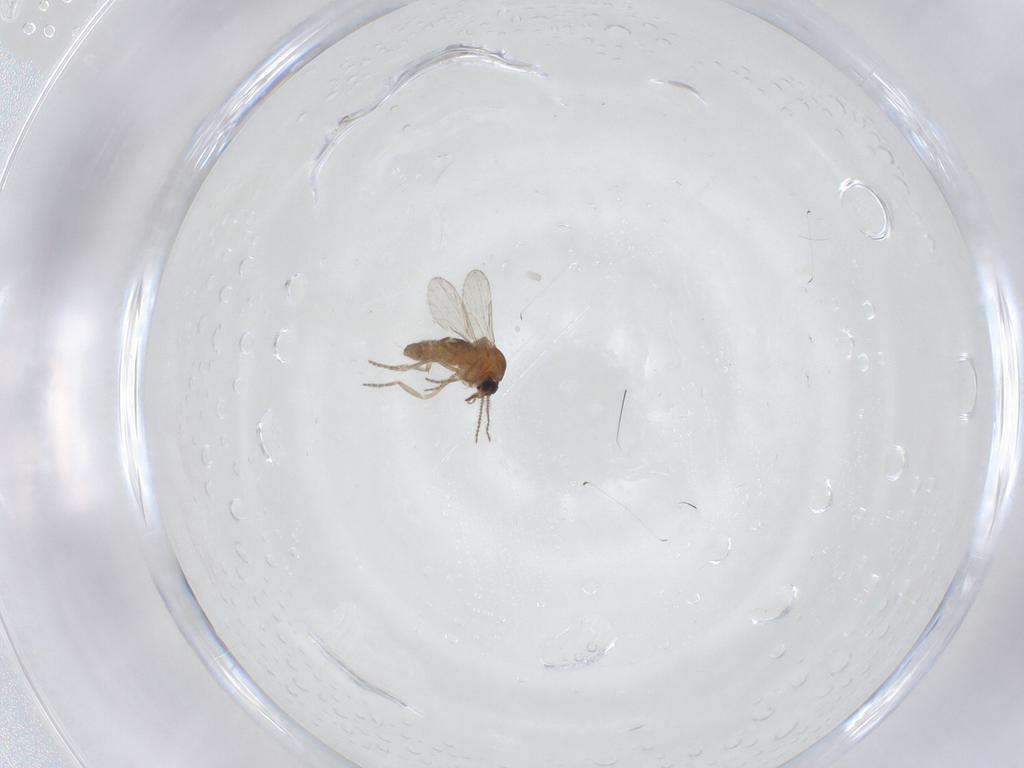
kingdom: Animalia
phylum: Arthropoda
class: Insecta
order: Diptera
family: Ceratopogonidae
